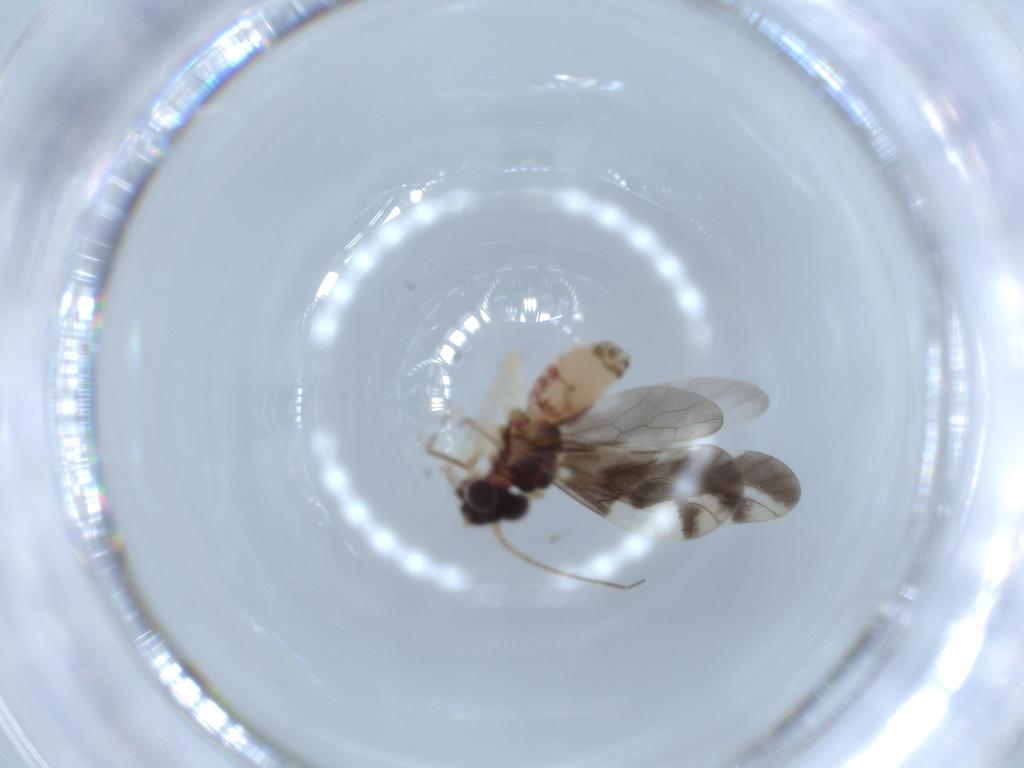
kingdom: Animalia
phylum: Arthropoda
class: Insecta
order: Psocodea
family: Caeciliusidae
